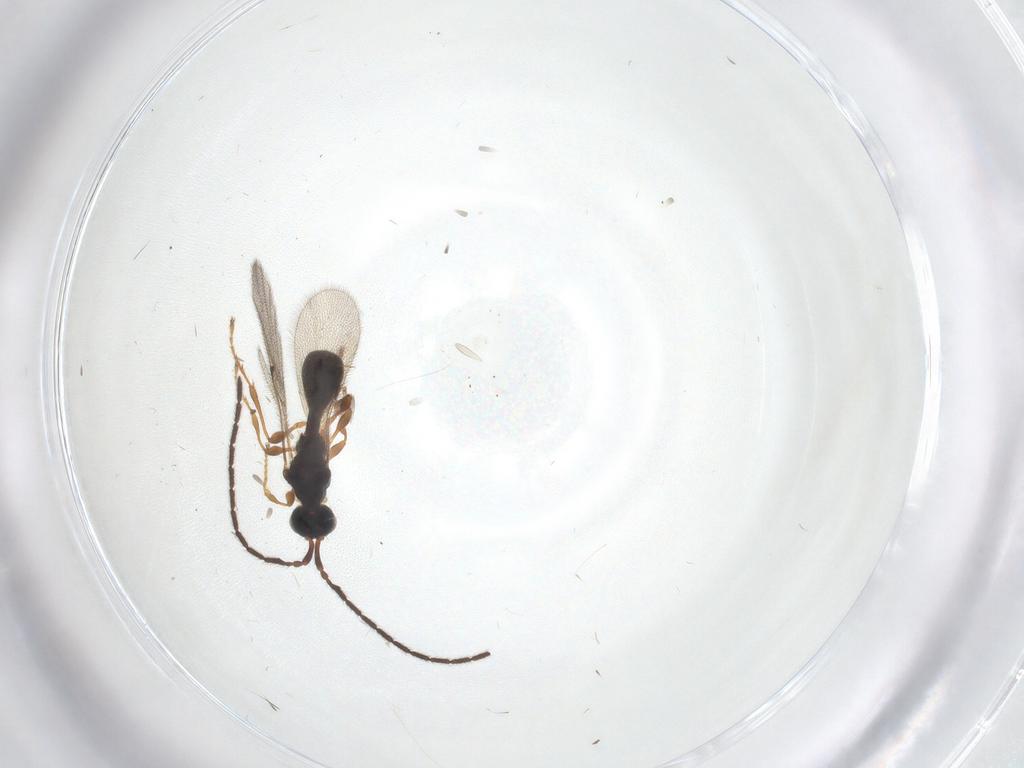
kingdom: Animalia
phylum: Arthropoda
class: Insecta
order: Hymenoptera
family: Diapriidae
